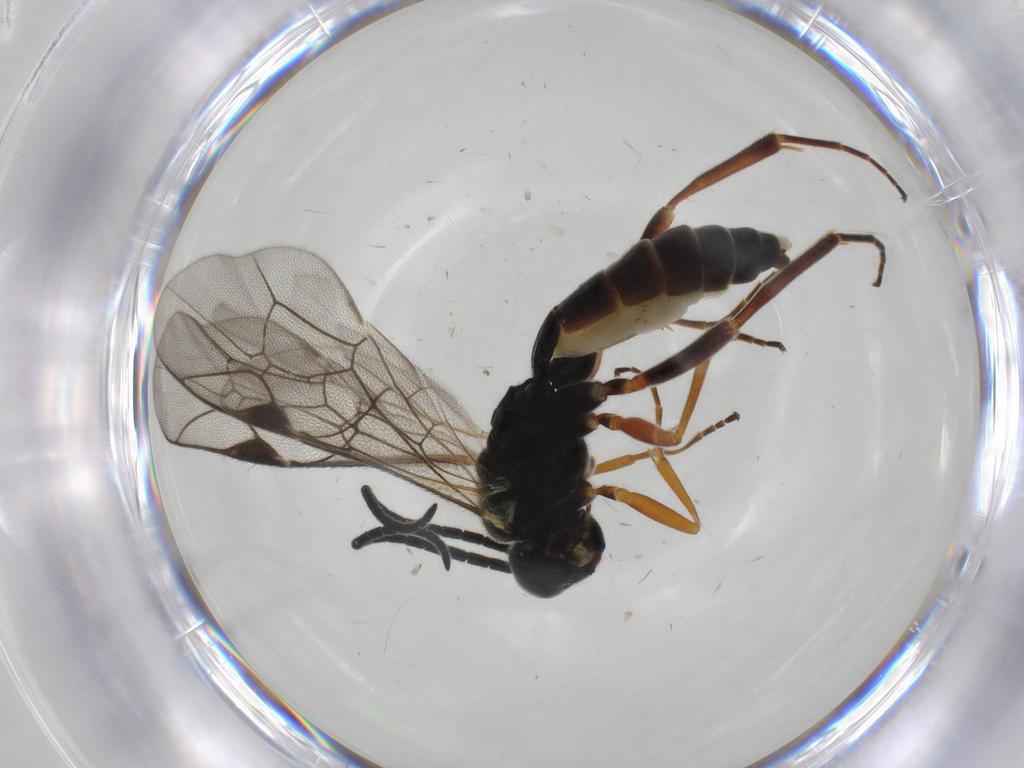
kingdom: Animalia
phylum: Arthropoda
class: Insecta
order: Hymenoptera
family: Ichneumonidae
